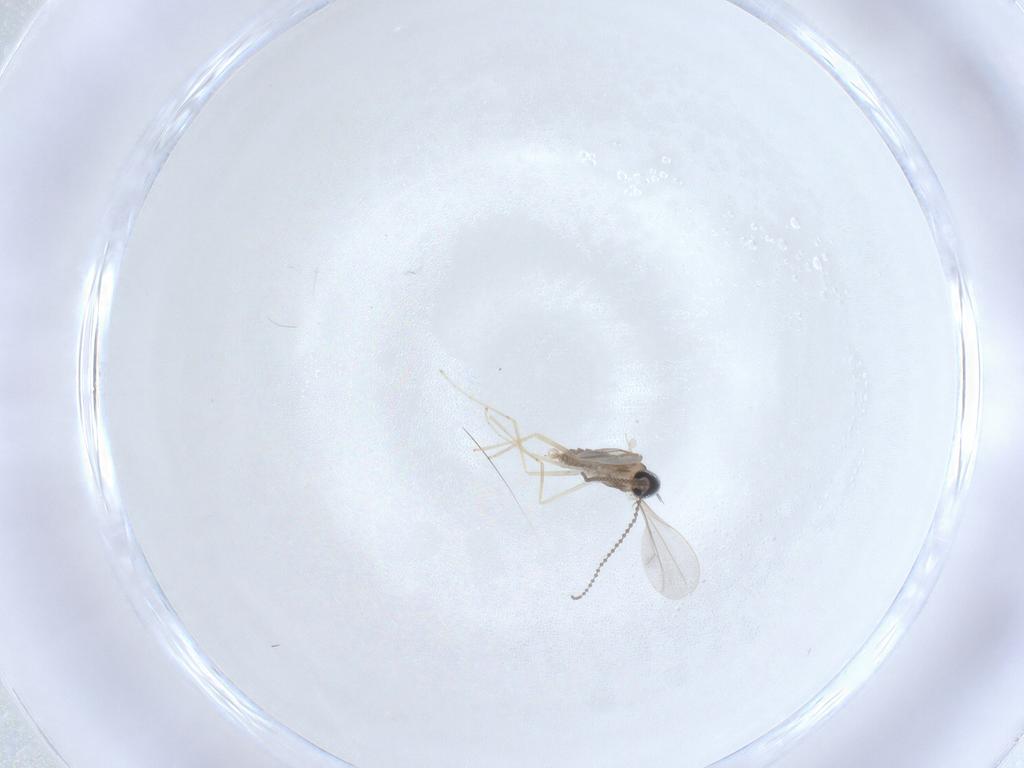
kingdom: Animalia
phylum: Arthropoda
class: Insecta
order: Diptera
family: Cecidomyiidae
